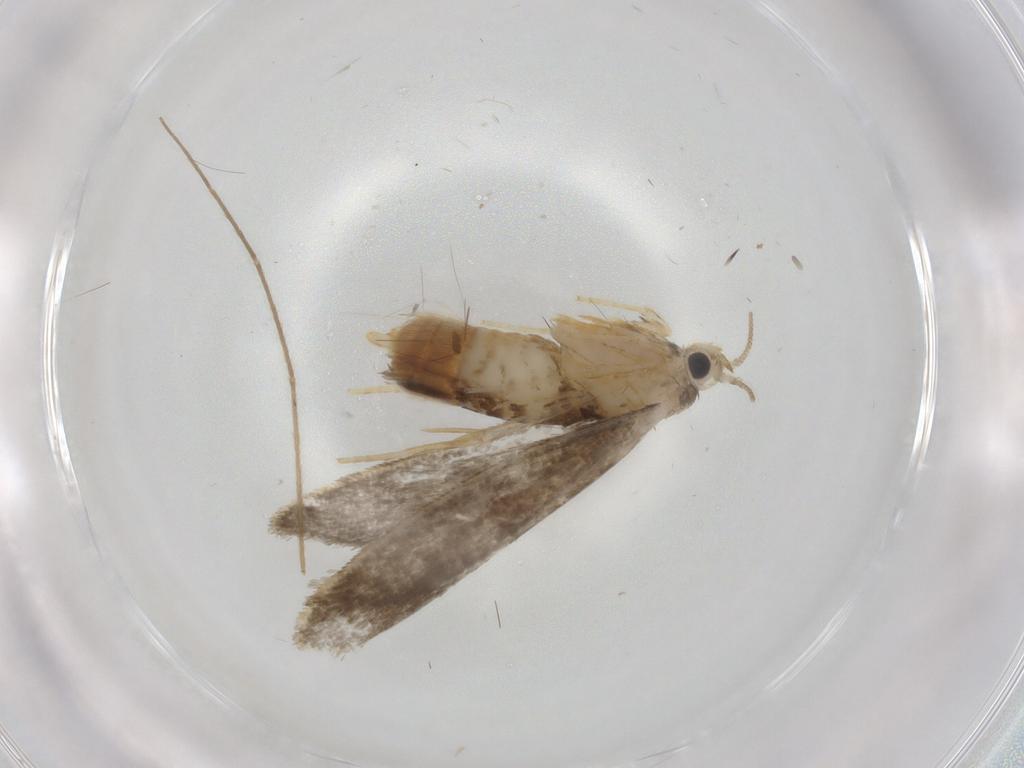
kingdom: Animalia
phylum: Arthropoda
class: Insecta
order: Lepidoptera
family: Psychidae
